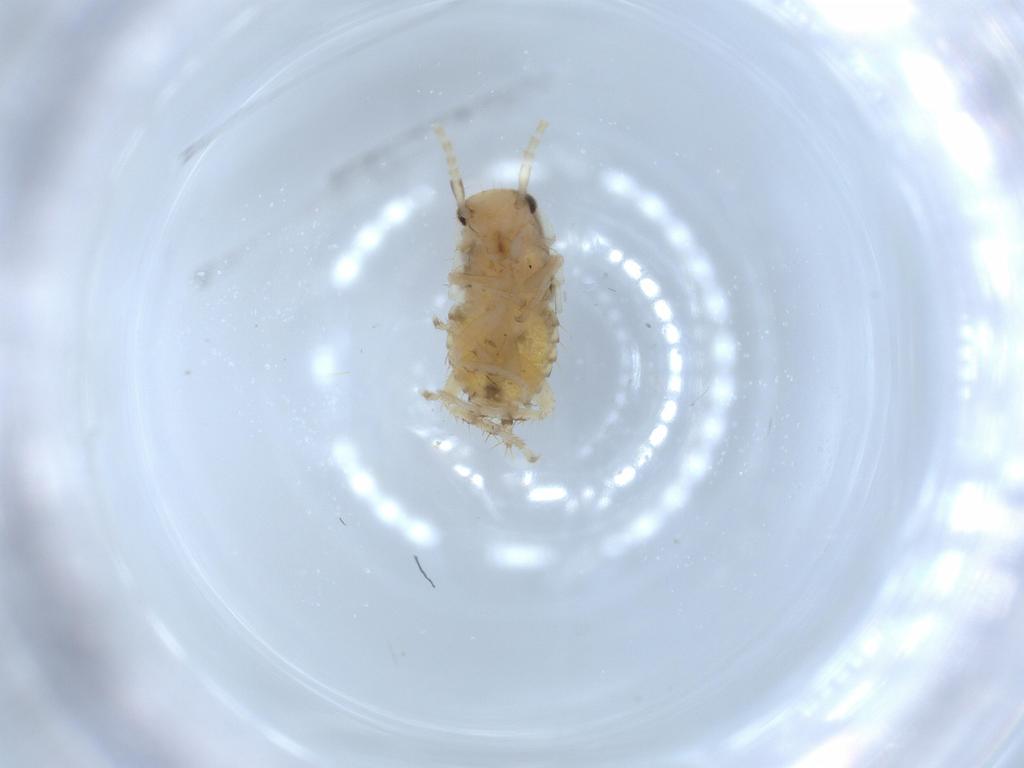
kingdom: Animalia
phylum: Arthropoda
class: Insecta
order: Blattodea
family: Ectobiidae
